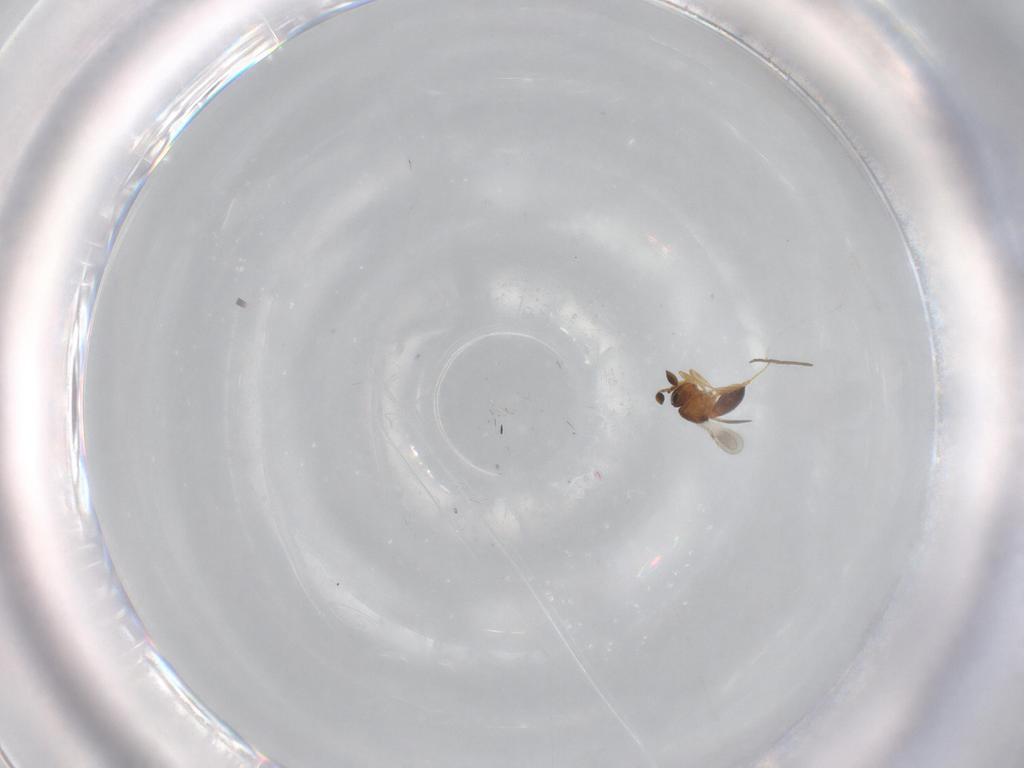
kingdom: Animalia
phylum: Arthropoda
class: Insecta
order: Hymenoptera
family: Scelionidae
